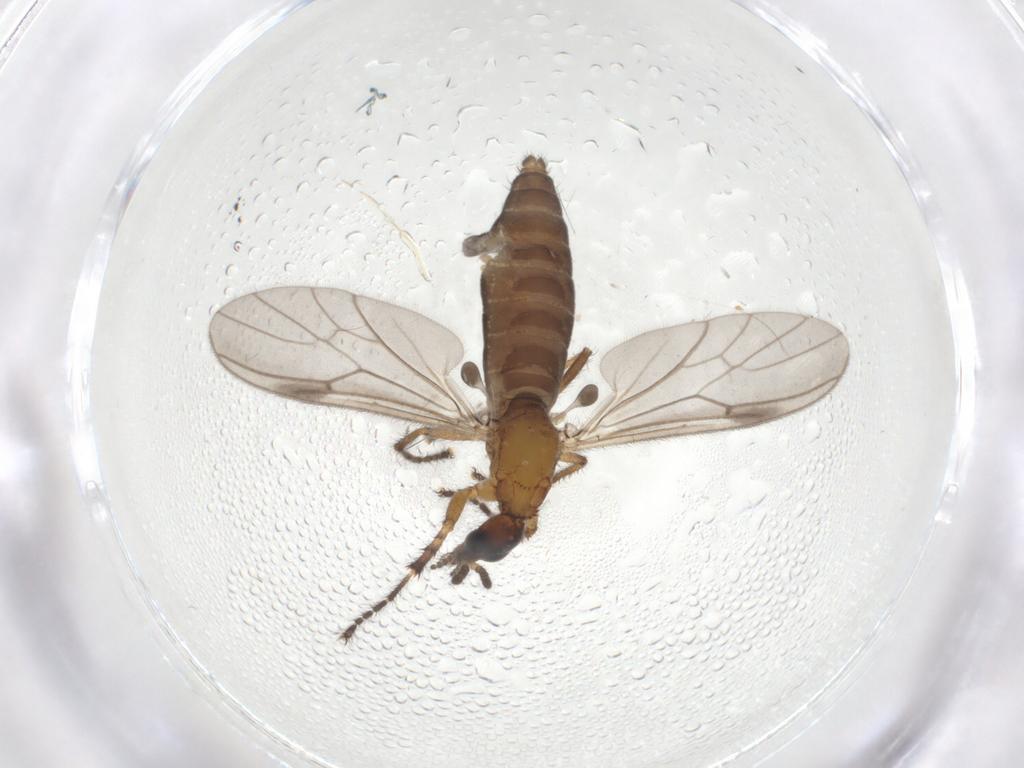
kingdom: Animalia
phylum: Arthropoda
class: Insecta
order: Diptera
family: Bibionidae
